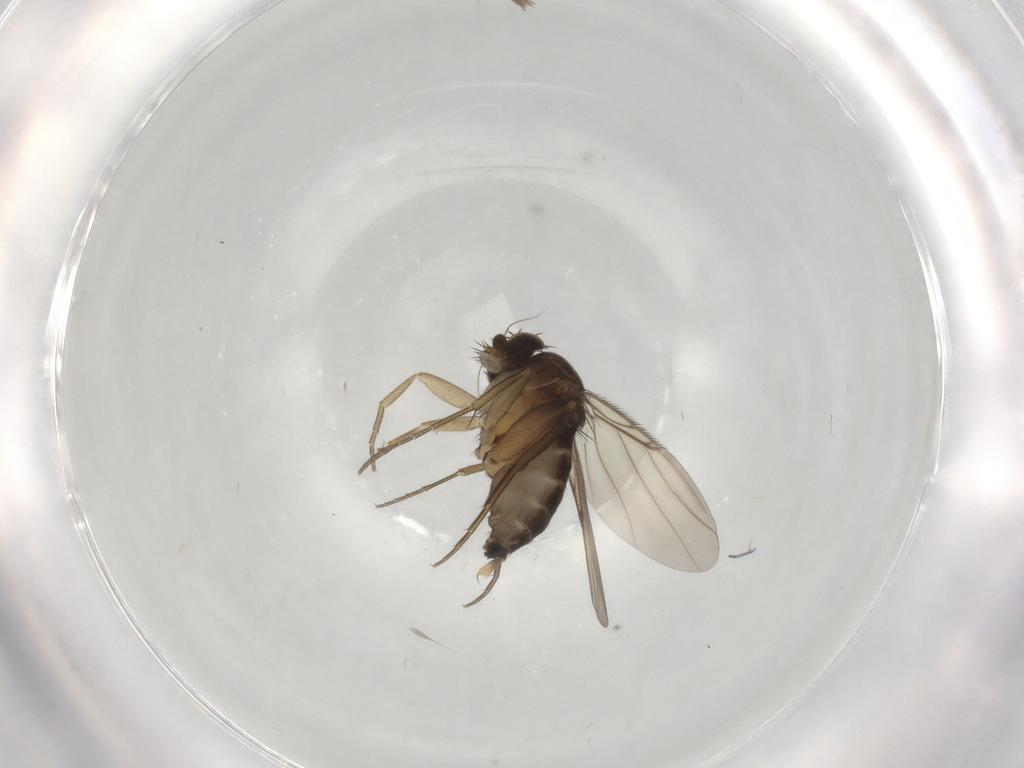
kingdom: Animalia
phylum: Arthropoda
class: Insecta
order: Diptera
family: Phoridae
